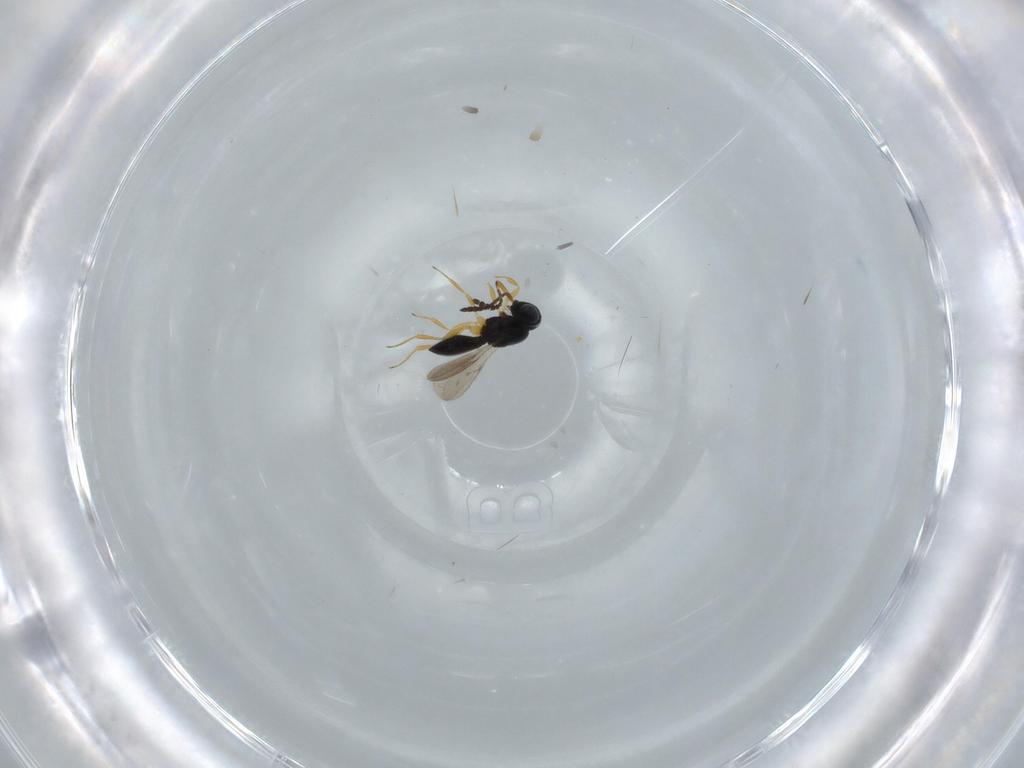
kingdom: Animalia
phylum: Arthropoda
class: Insecta
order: Hymenoptera
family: Scelionidae
